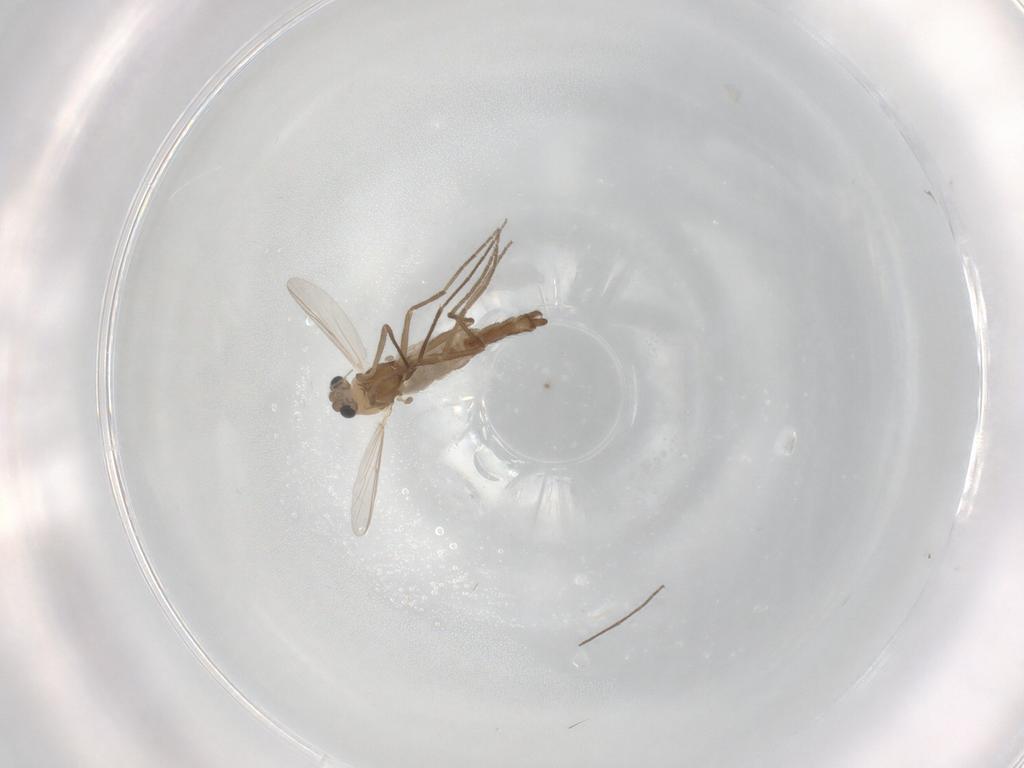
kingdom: Animalia
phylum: Arthropoda
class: Insecta
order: Diptera
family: Chironomidae
